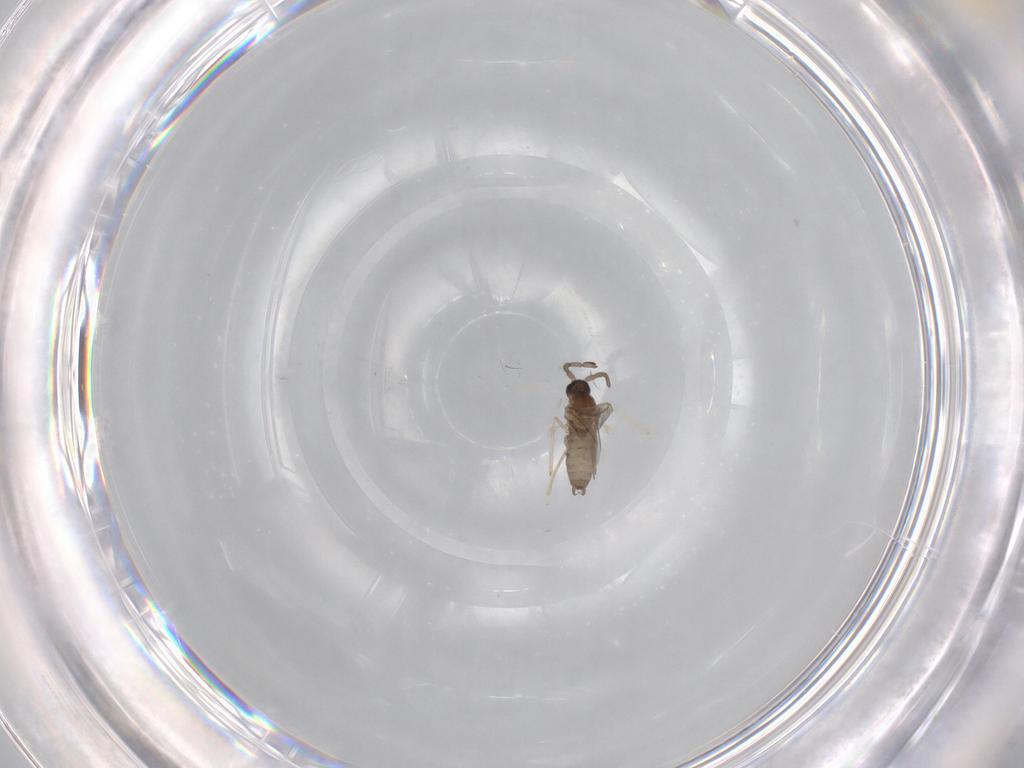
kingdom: Animalia
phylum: Arthropoda
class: Insecta
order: Diptera
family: Cecidomyiidae
